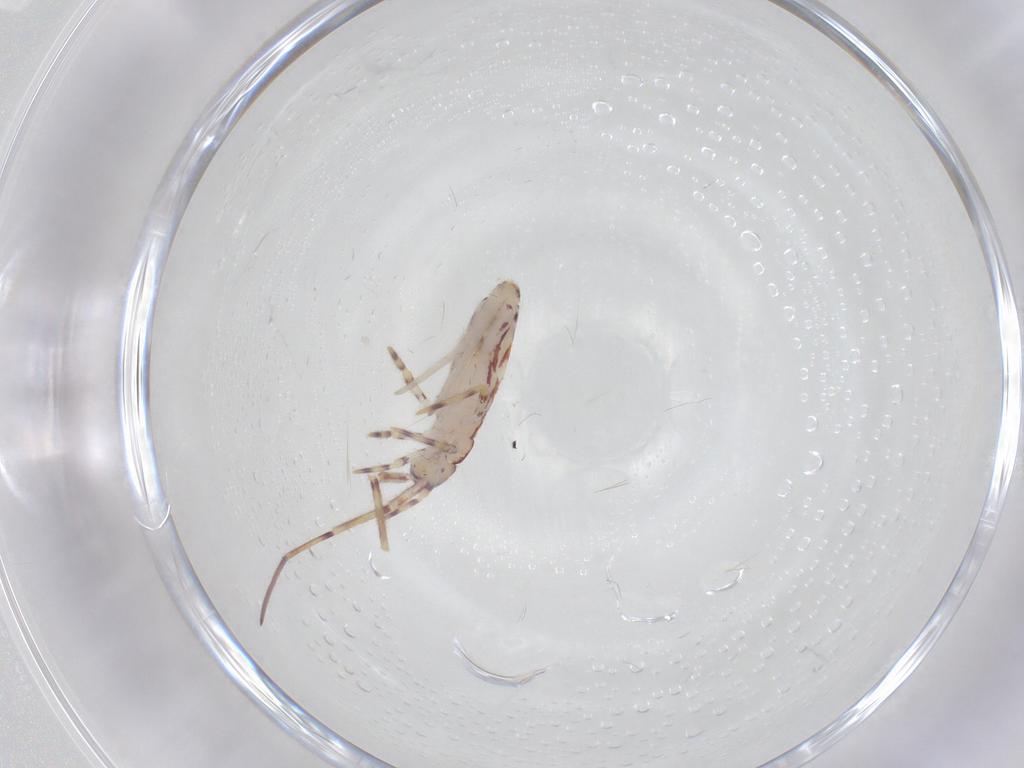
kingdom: Animalia
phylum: Arthropoda
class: Collembola
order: Entomobryomorpha
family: Entomobryidae
